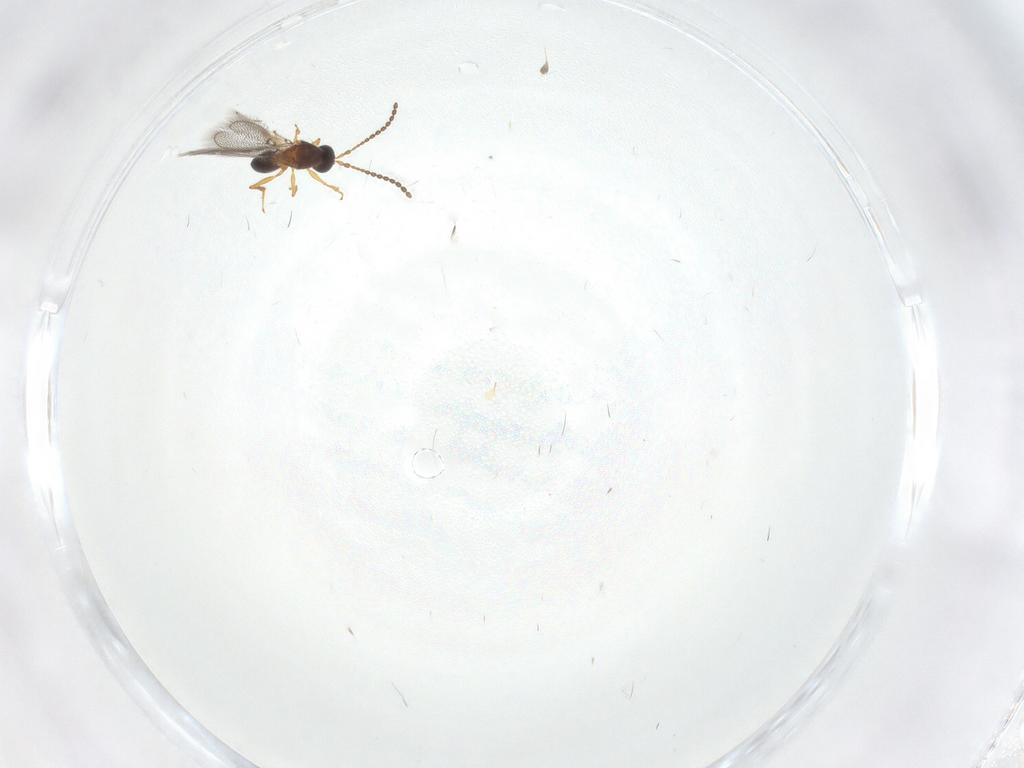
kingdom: Animalia
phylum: Arthropoda
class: Insecta
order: Hymenoptera
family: Figitidae
